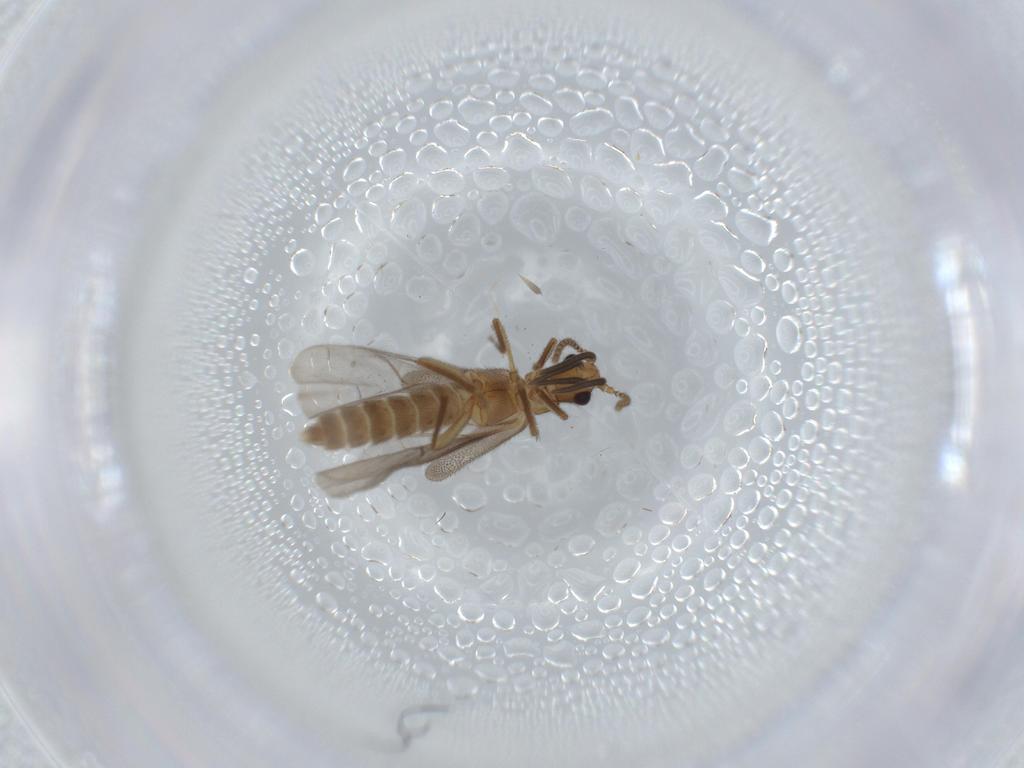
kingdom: Animalia
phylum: Arthropoda
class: Insecta
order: Coleoptera
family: Omethidae
